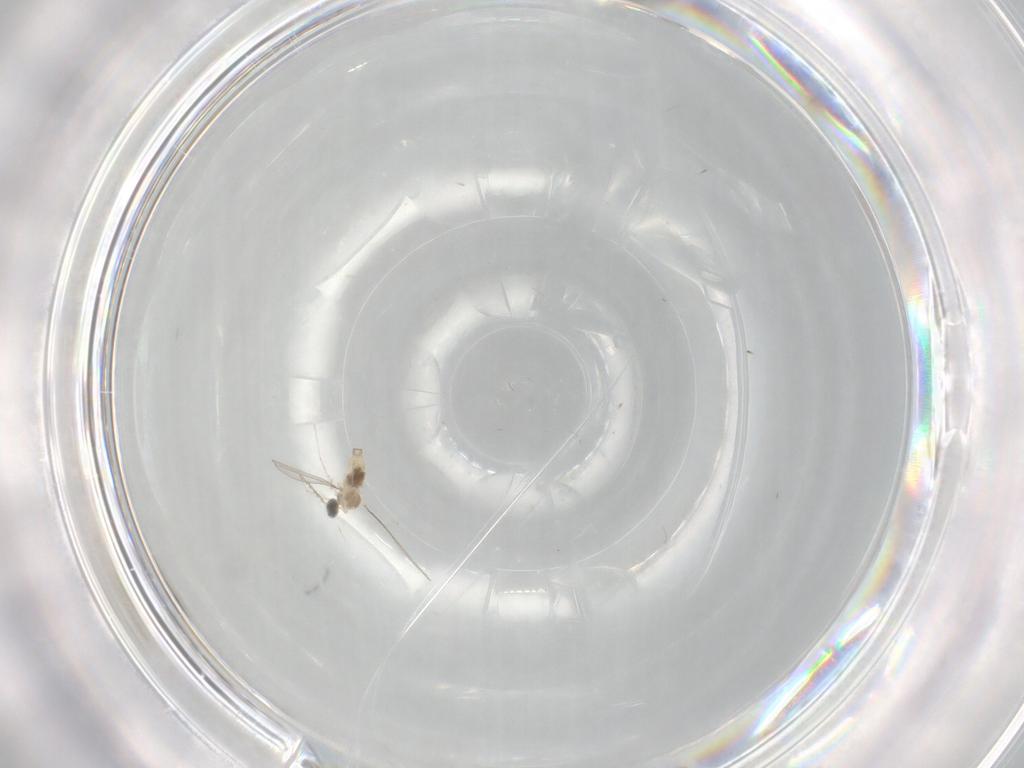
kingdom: Animalia
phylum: Arthropoda
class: Insecta
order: Diptera
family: Cecidomyiidae
